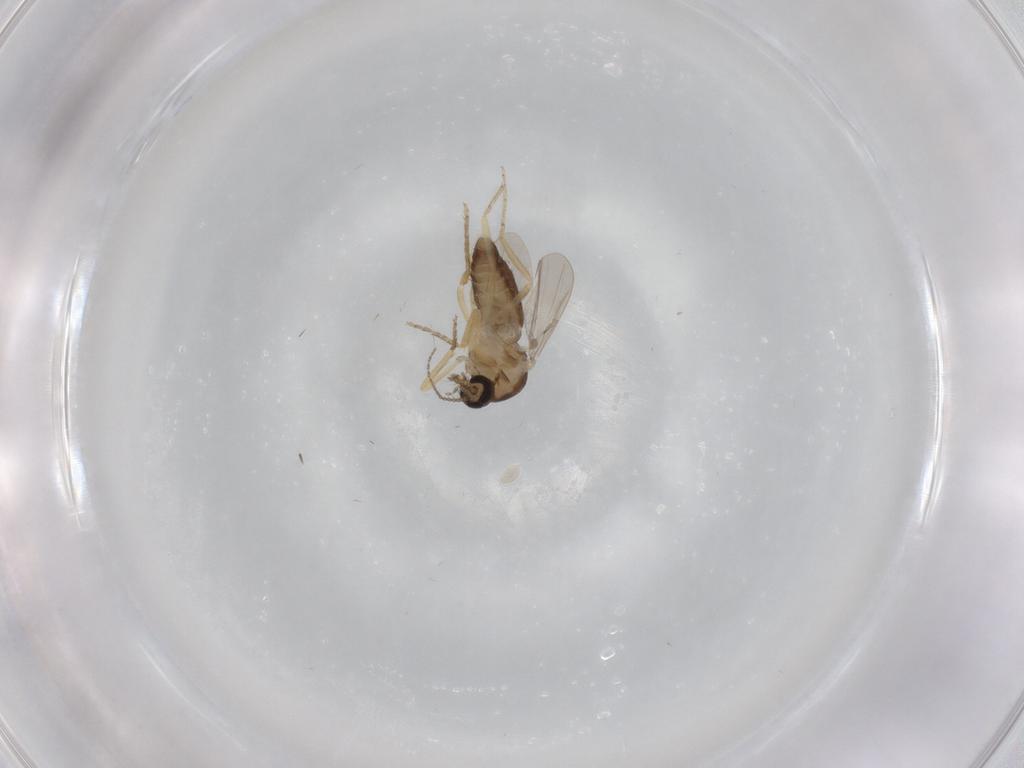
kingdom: Animalia
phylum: Arthropoda
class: Insecta
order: Diptera
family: Ceratopogonidae
